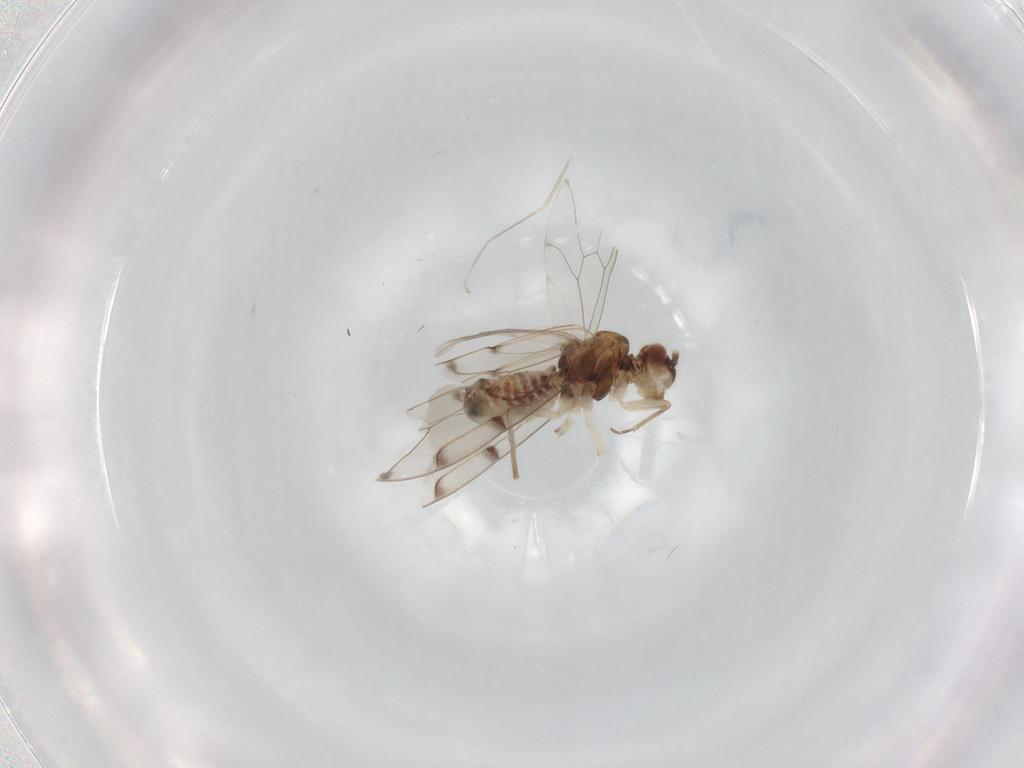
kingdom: Animalia
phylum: Arthropoda
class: Insecta
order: Psocodea
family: Ectopsocidae
